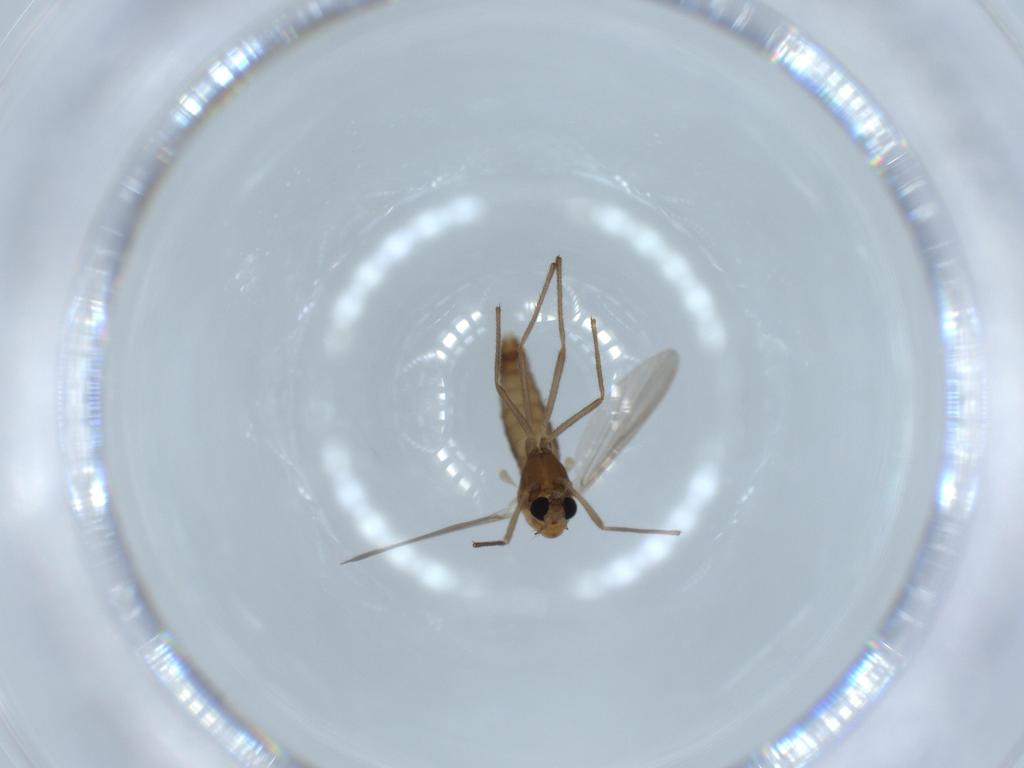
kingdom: Animalia
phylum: Arthropoda
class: Insecta
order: Diptera
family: Chironomidae
